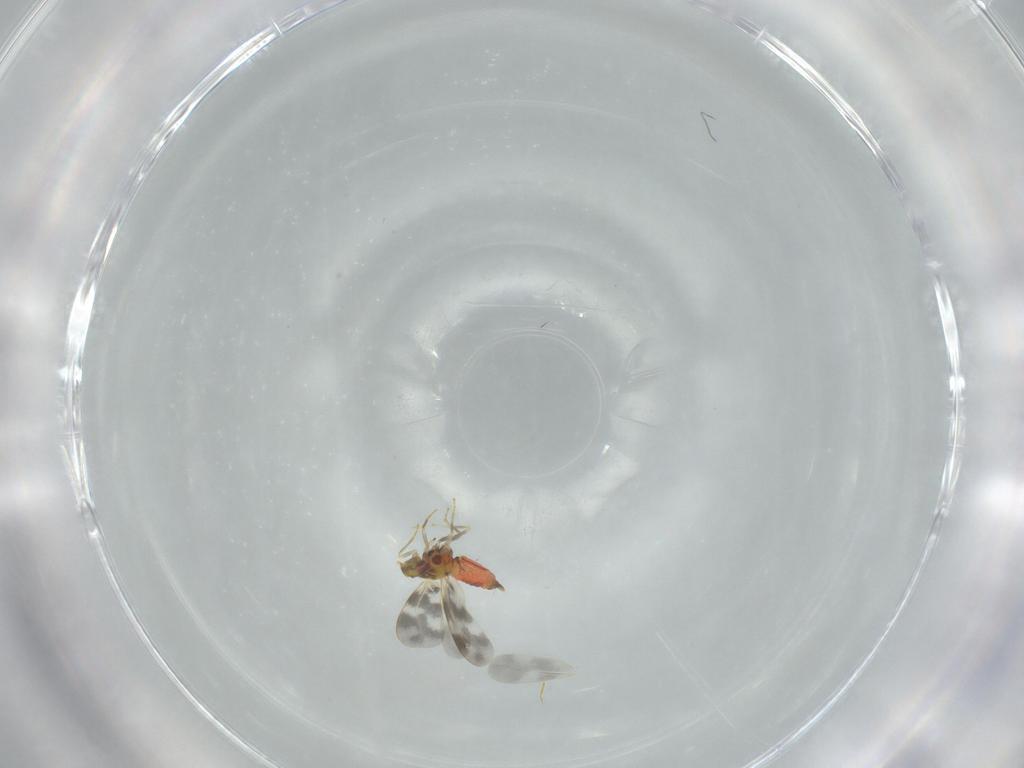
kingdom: Animalia
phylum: Arthropoda
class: Insecta
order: Hemiptera
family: Aleyrodidae
